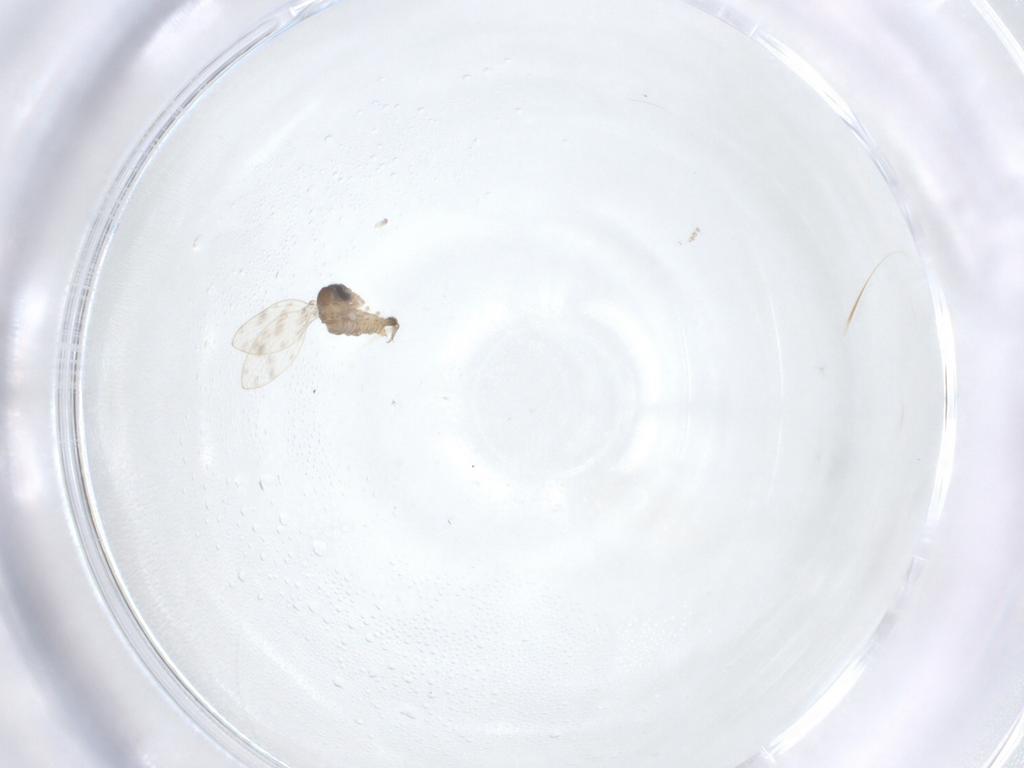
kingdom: Animalia
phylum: Arthropoda
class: Insecta
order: Diptera
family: Psychodidae
